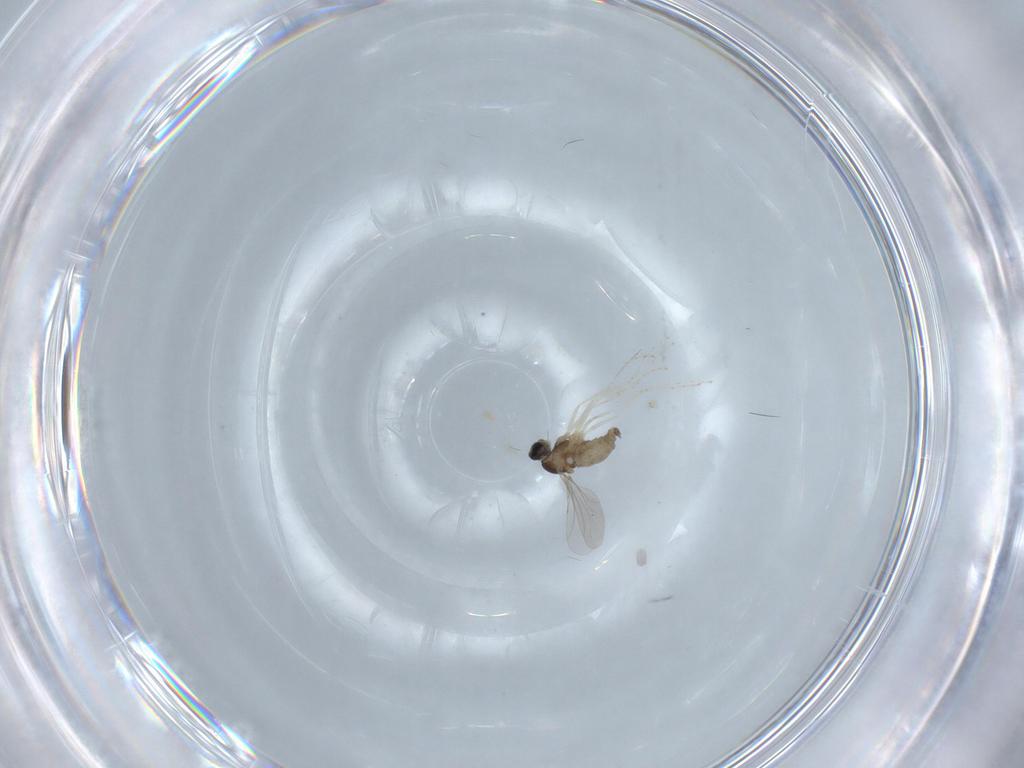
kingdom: Animalia
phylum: Arthropoda
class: Insecta
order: Diptera
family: Cecidomyiidae
